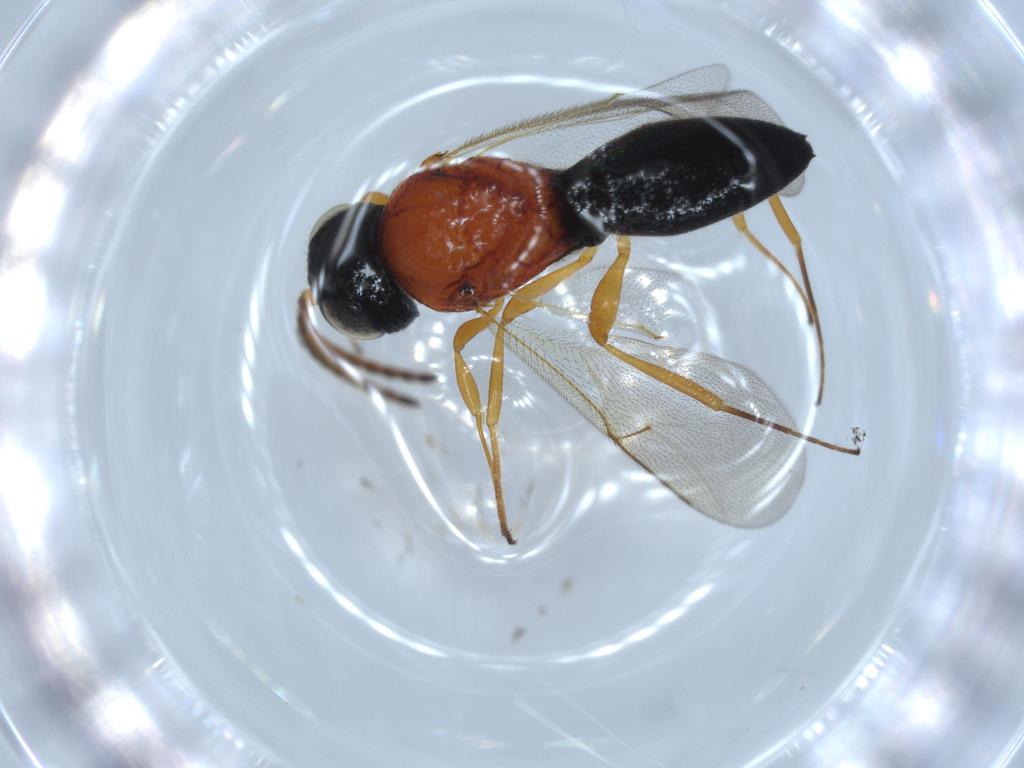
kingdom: Animalia
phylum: Arthropoda
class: Insecta
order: Hymenoptera
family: Scelionidae
